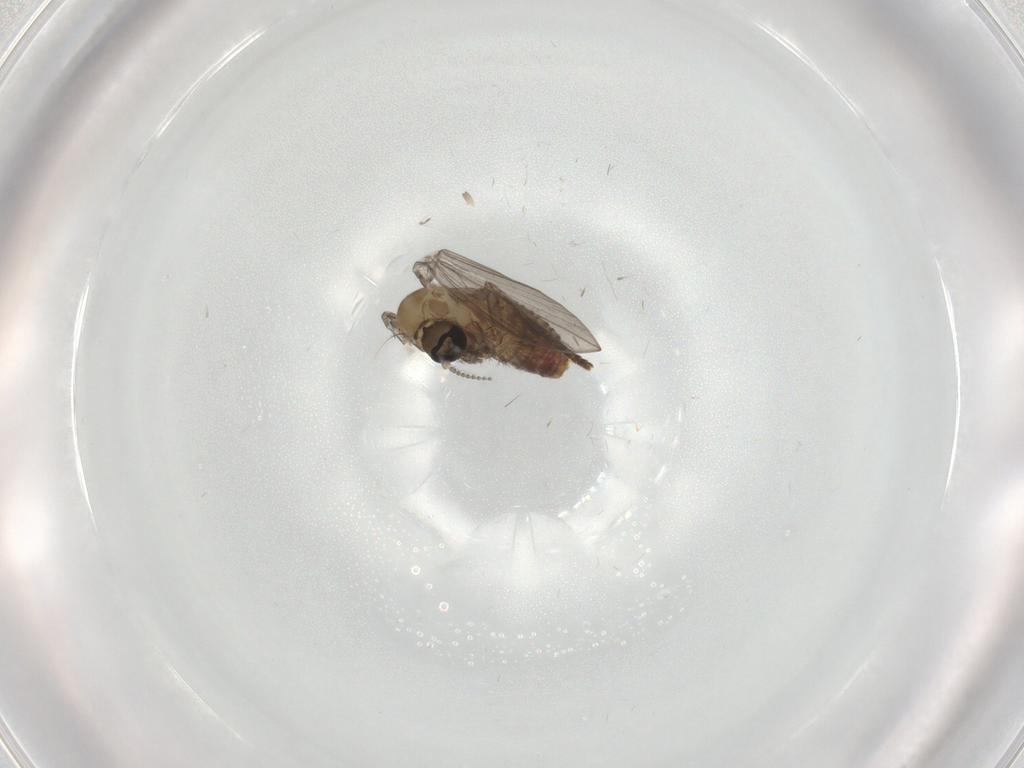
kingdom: Animalia
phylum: Arthropoda
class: Insecta
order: Diptera
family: Psychodidae
